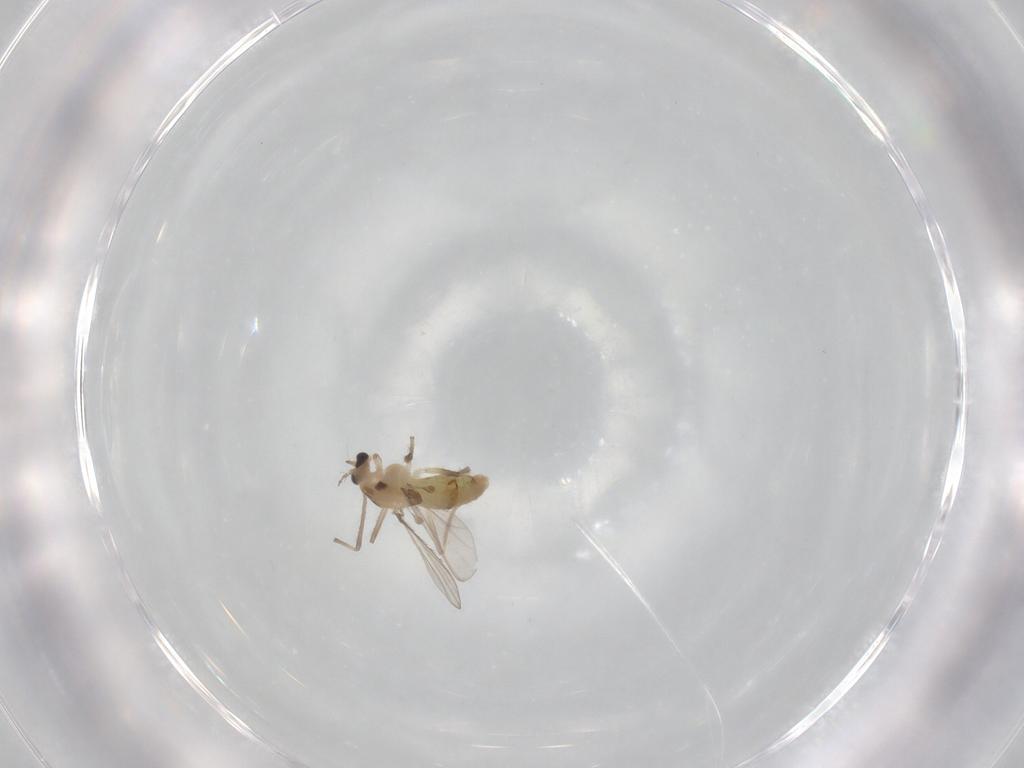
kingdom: Animalia
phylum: Arthropoda
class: Insecta
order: Diptera
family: Chironomidae
